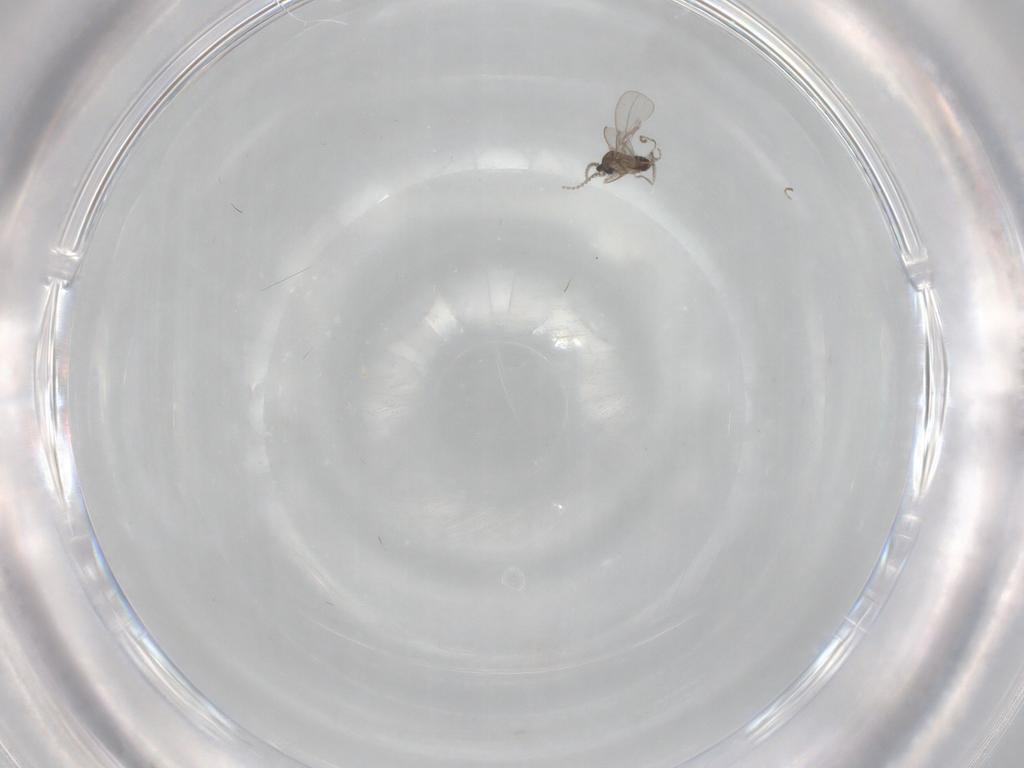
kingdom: Animalia
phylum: Arthropoda
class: Insecta
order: Diptera
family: Cecidomyiidae
